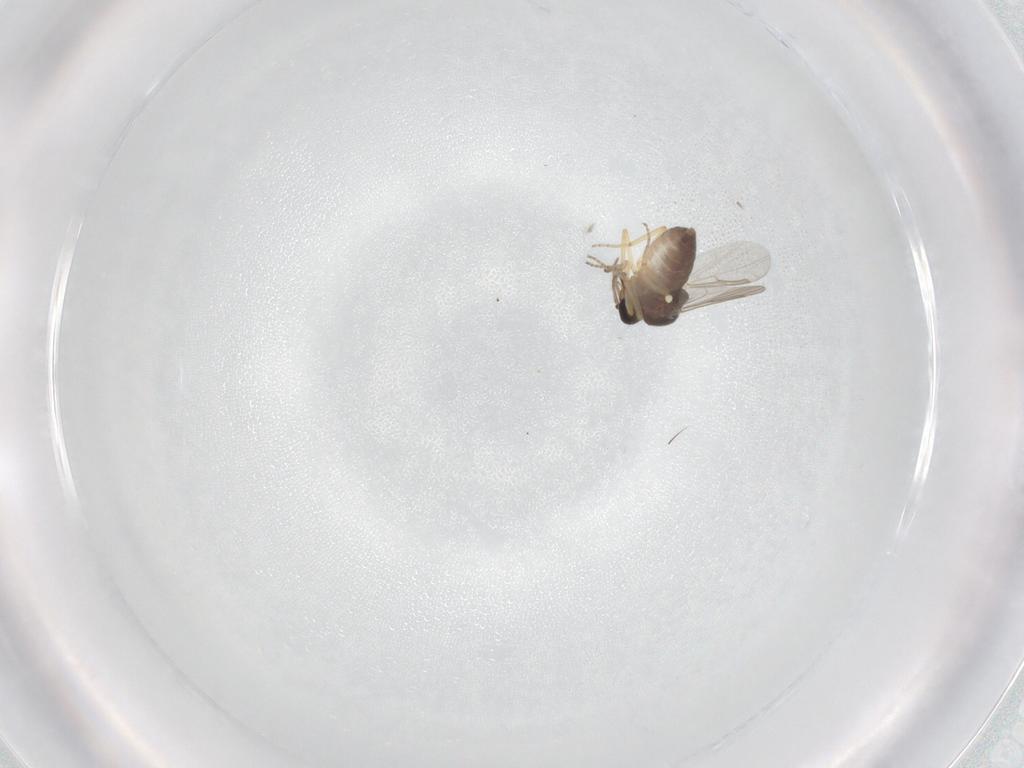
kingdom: Animalia
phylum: Arthropoda
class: Insecta
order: Diptera
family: Ceratopogonidae
